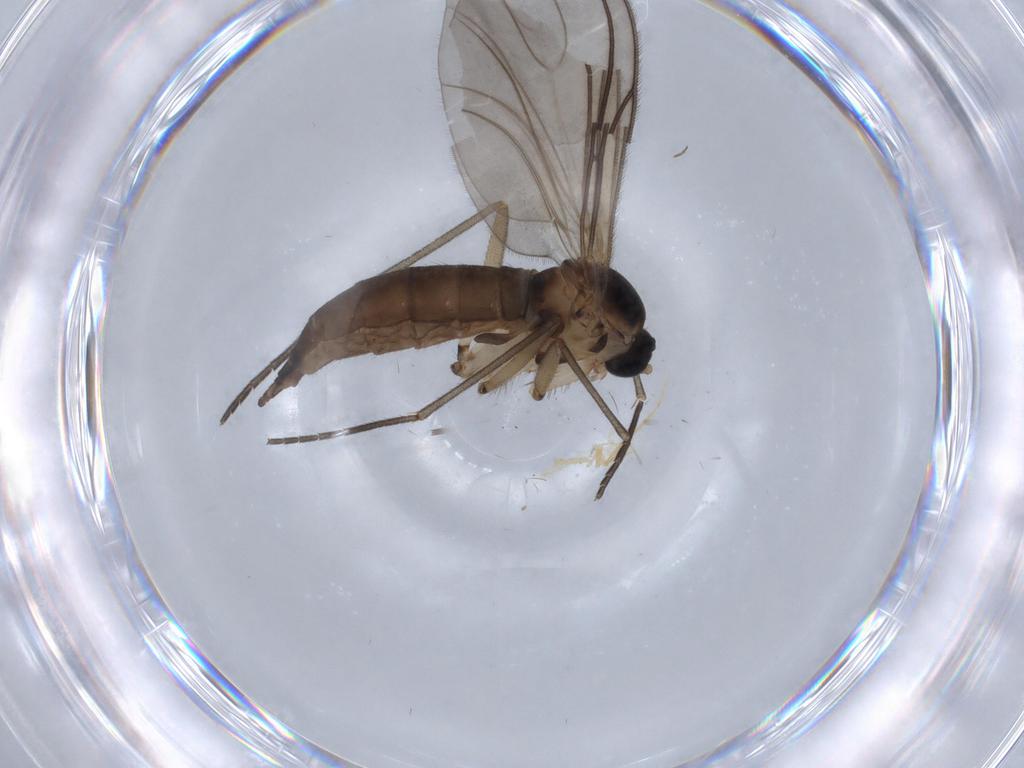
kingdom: Animalia
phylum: Arthropoda
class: Insecta
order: Diptera
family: Sciaridae
